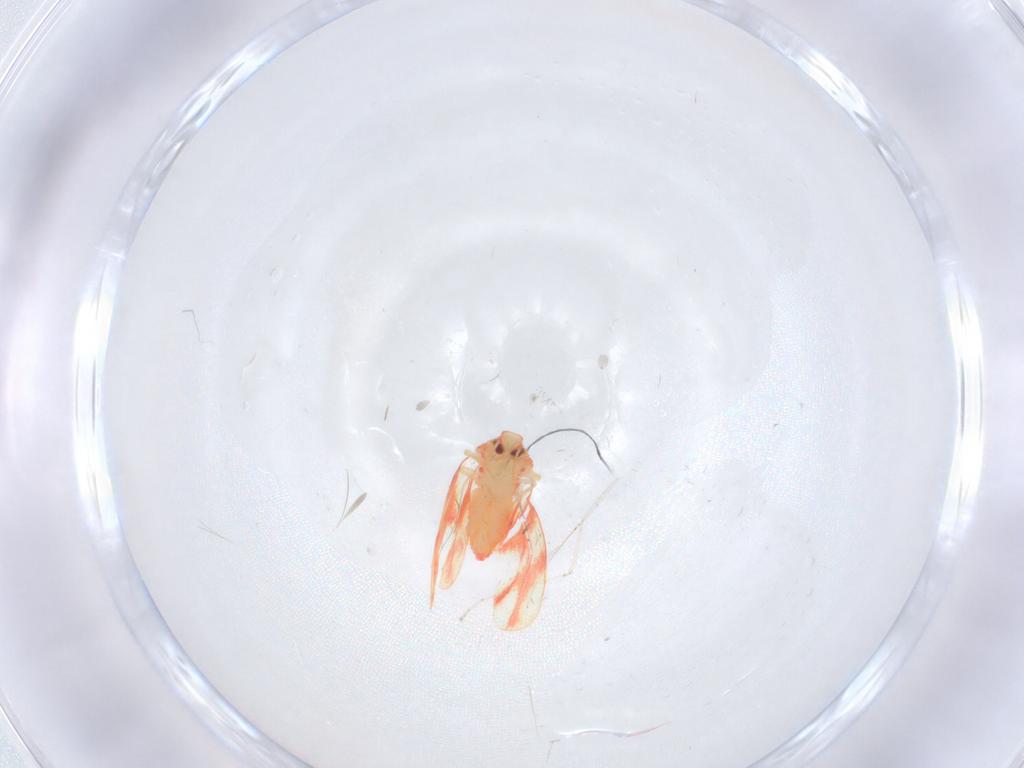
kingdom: Animalia
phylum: Arthropoda
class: Insecta
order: Hemiptera
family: Aleyrodidae
